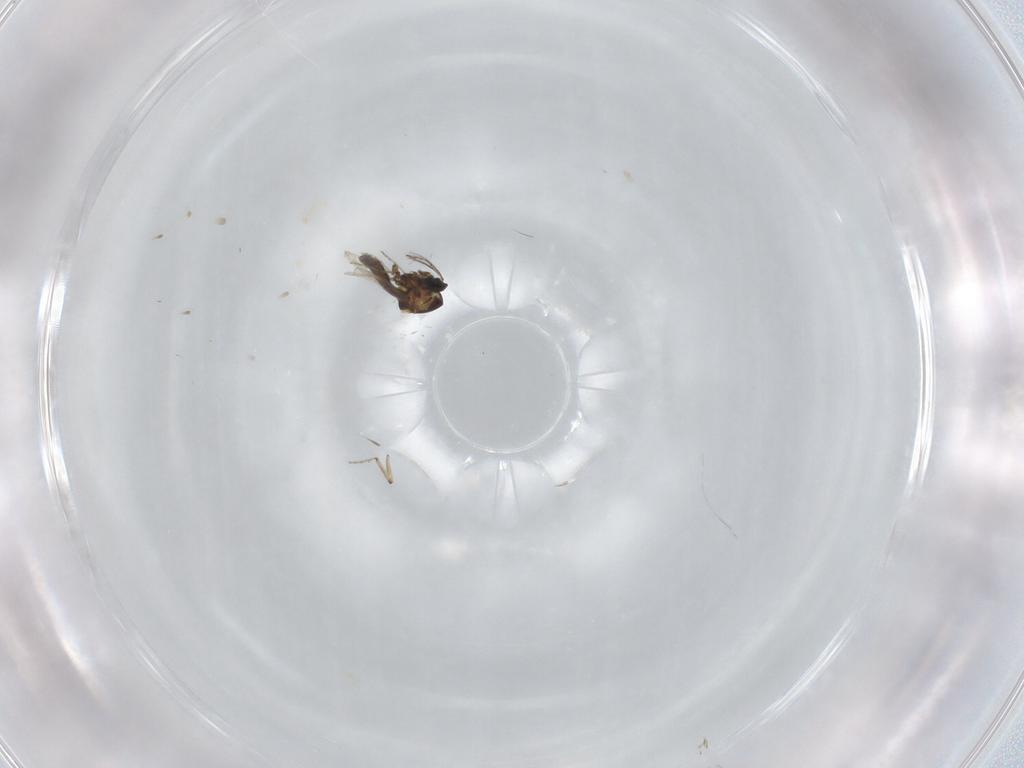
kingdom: Animalia
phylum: Arthropoda
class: Insecta
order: Diptera
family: Ceratopogonidae
